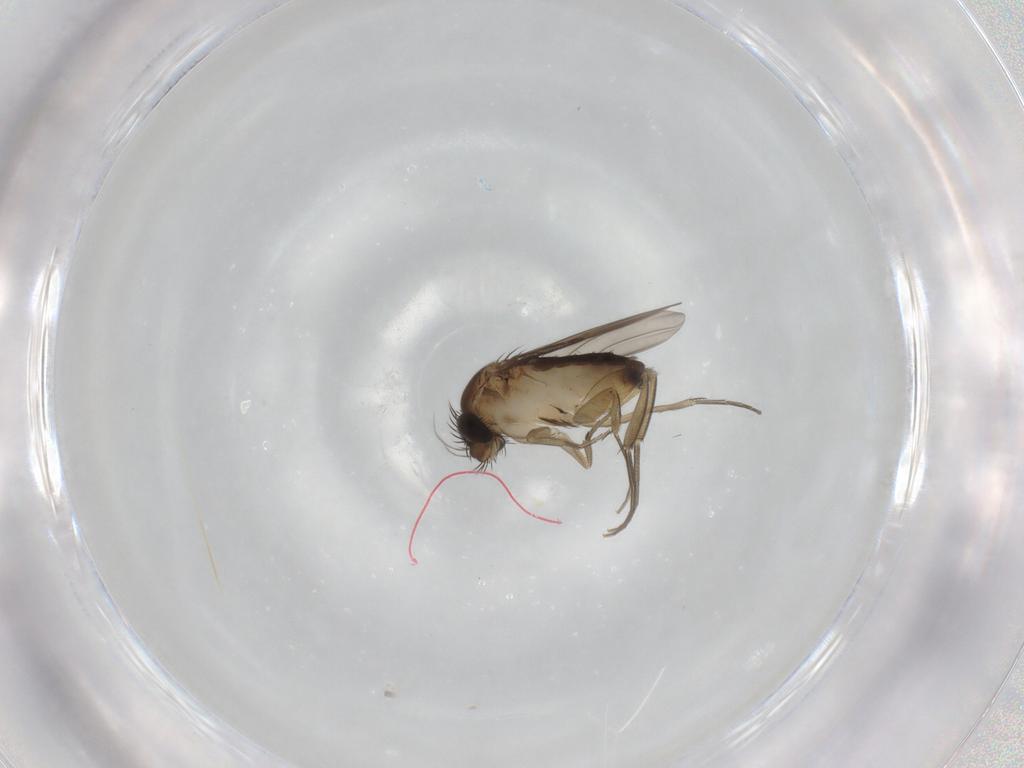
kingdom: Animalia
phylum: Arthropoda
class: Insecta
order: Diptera
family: Phoridae
